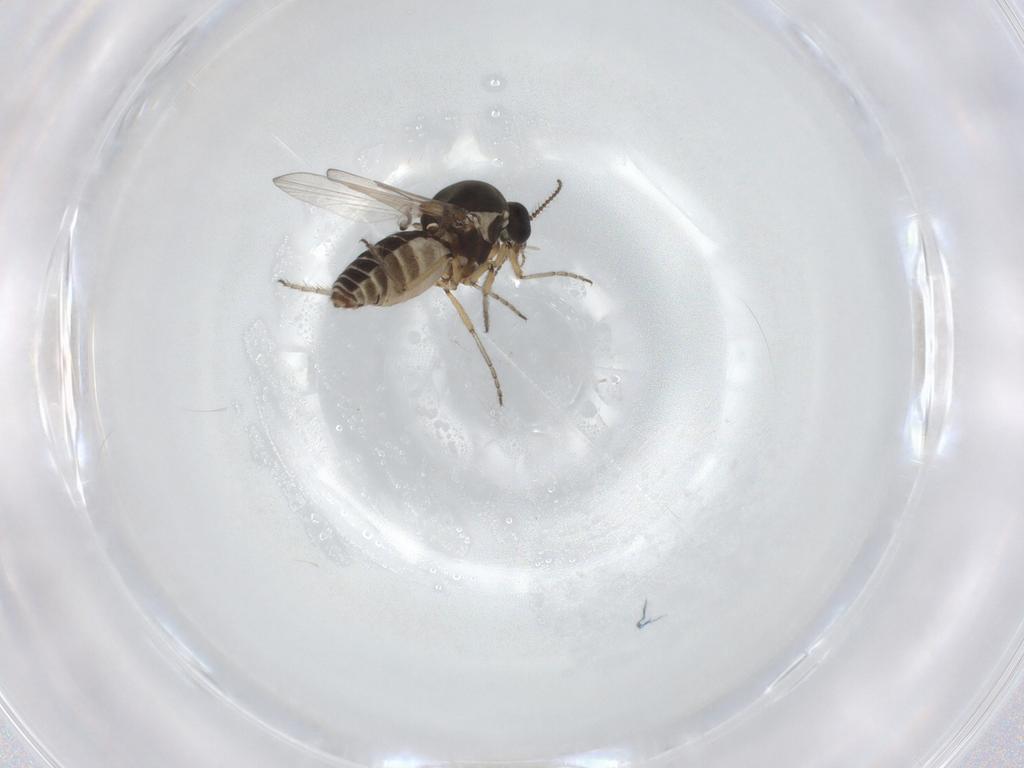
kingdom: Animalia
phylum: Arthropoda
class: Insecta
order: Diptera
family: Ceratopogonidae
